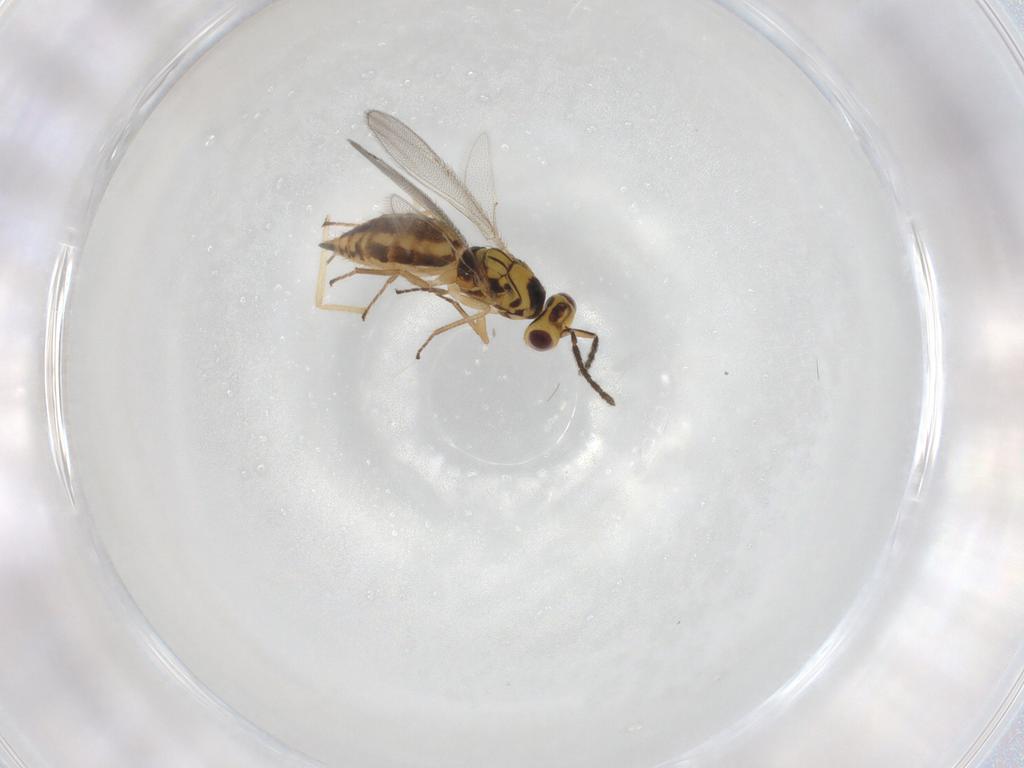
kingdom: Animalia
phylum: Arthropoda
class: Insecta
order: Hymenoptera
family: Eulophidae
